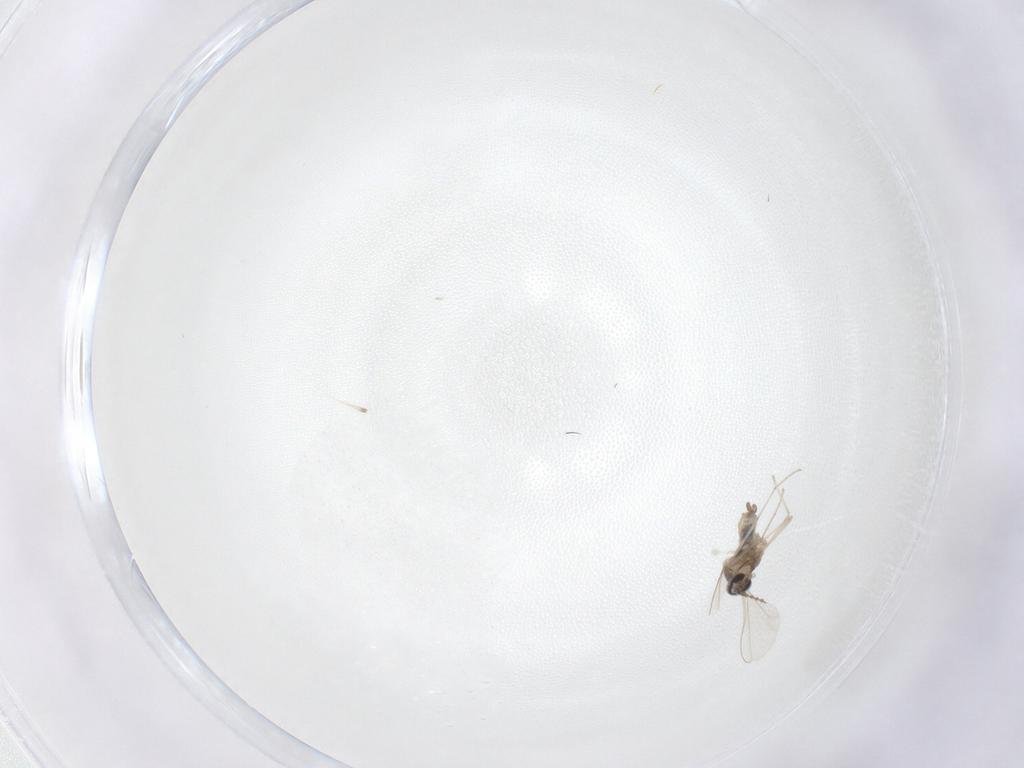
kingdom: Animalia
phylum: Arthropoda
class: Insecta
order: Diptera
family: Cecidomyiidae
